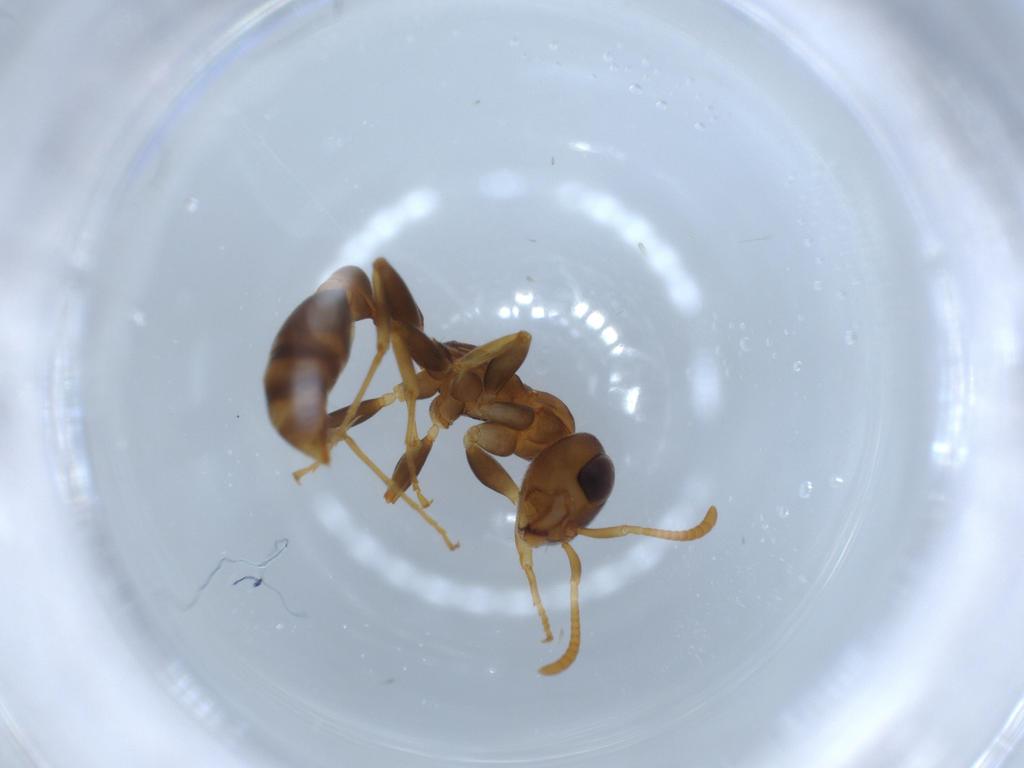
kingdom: Animalia
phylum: Arthropoda
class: Insecta
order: Hymenoptera
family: Formicidae
